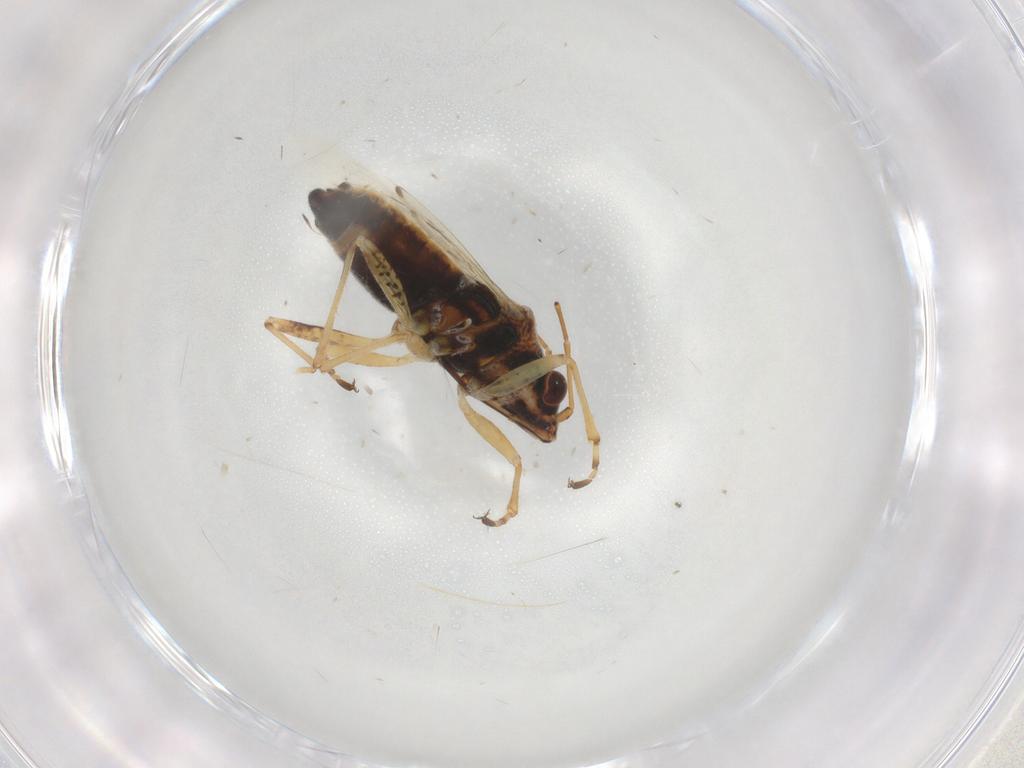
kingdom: Animalia
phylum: Arthropoda
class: Insecta
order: Hemiptera
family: Lygaeidae
